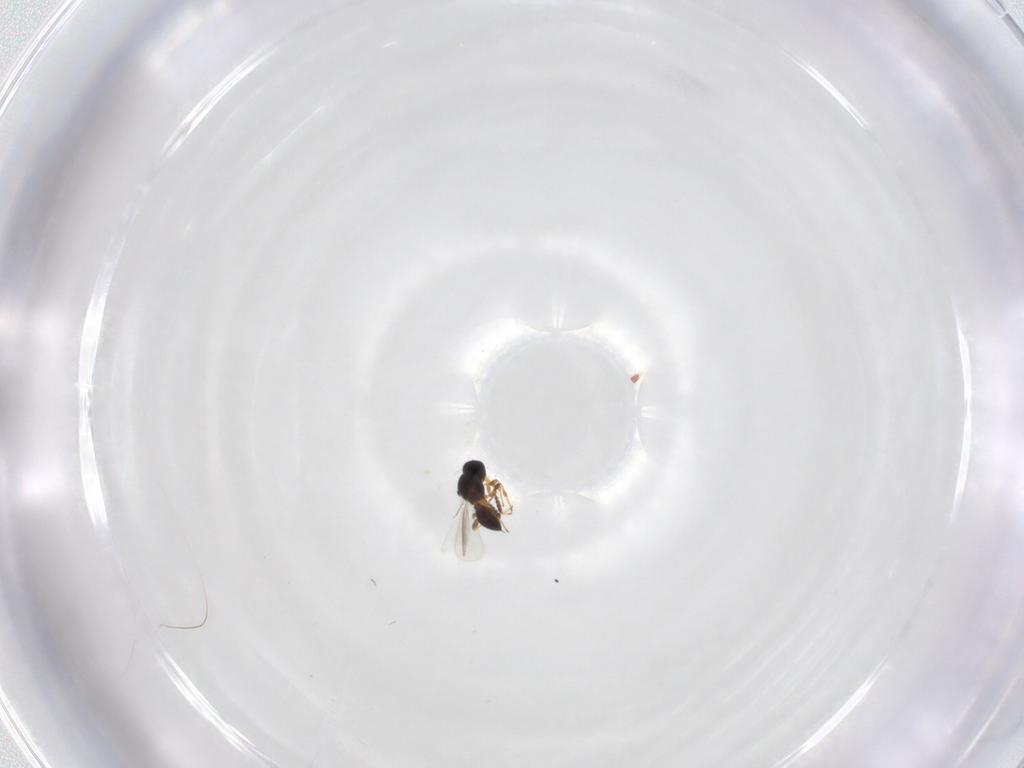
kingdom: Animalia
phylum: Arthropoda
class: Insecta
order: Hymenoptera
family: Platygastridae
